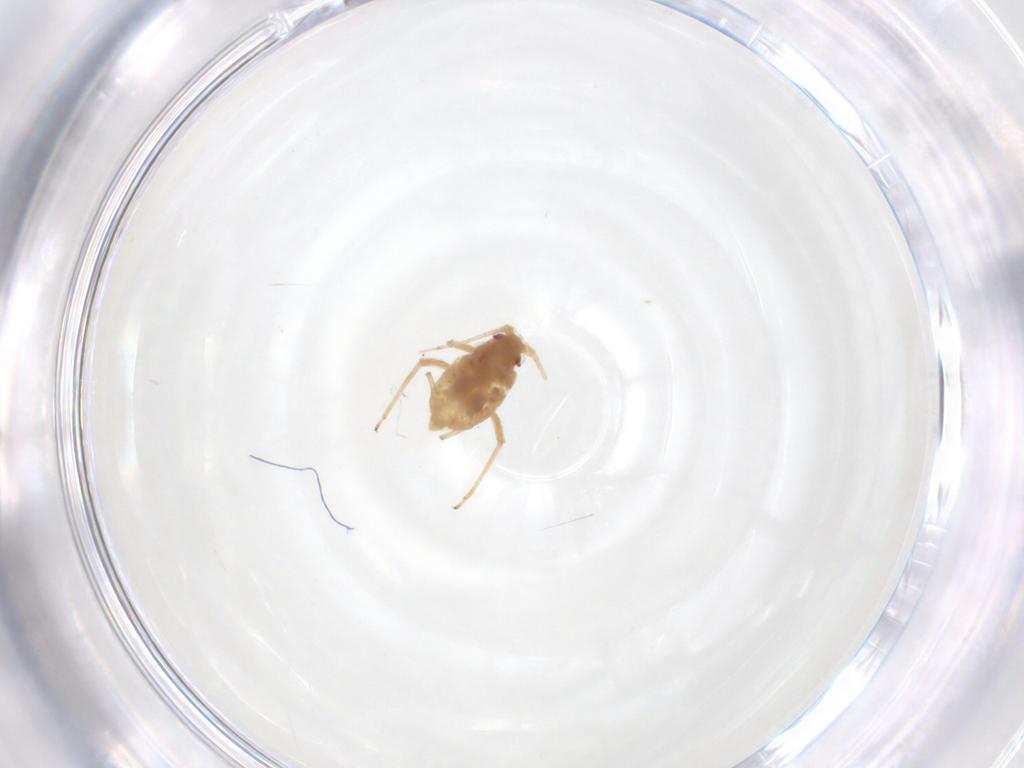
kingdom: Animalia
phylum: Arthropoda
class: Insecta
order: Hemiptera
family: Aphididae
